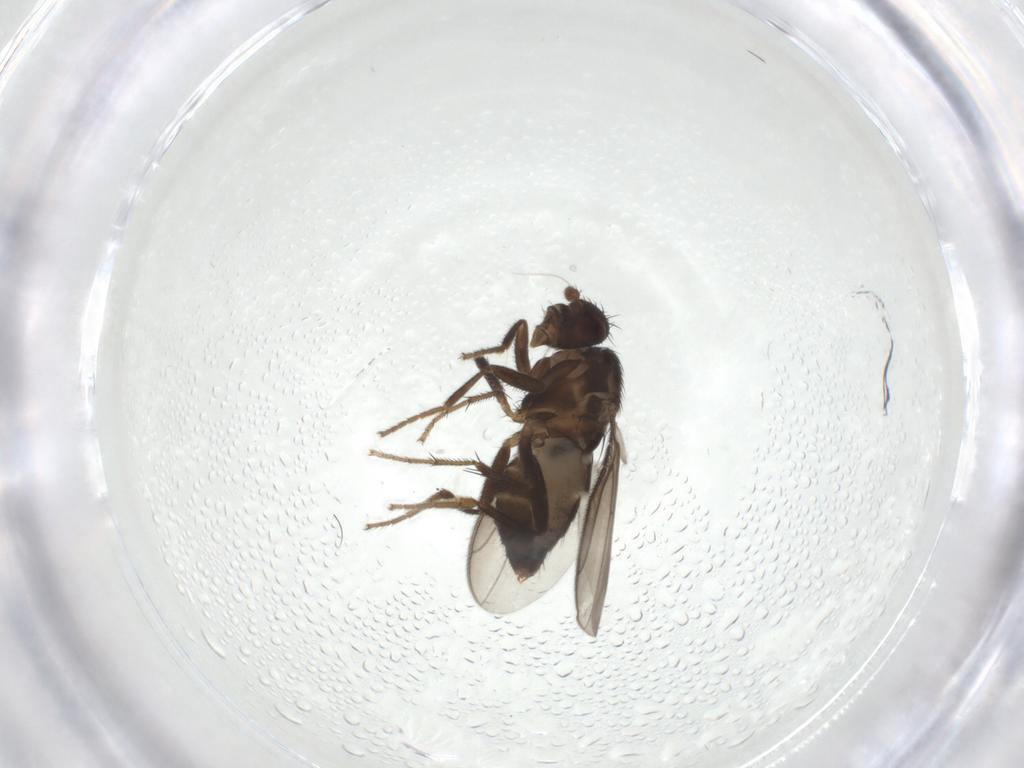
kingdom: Animalia
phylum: Arthropoda
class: Insecta
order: Diptera
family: Sphaeroceridae
